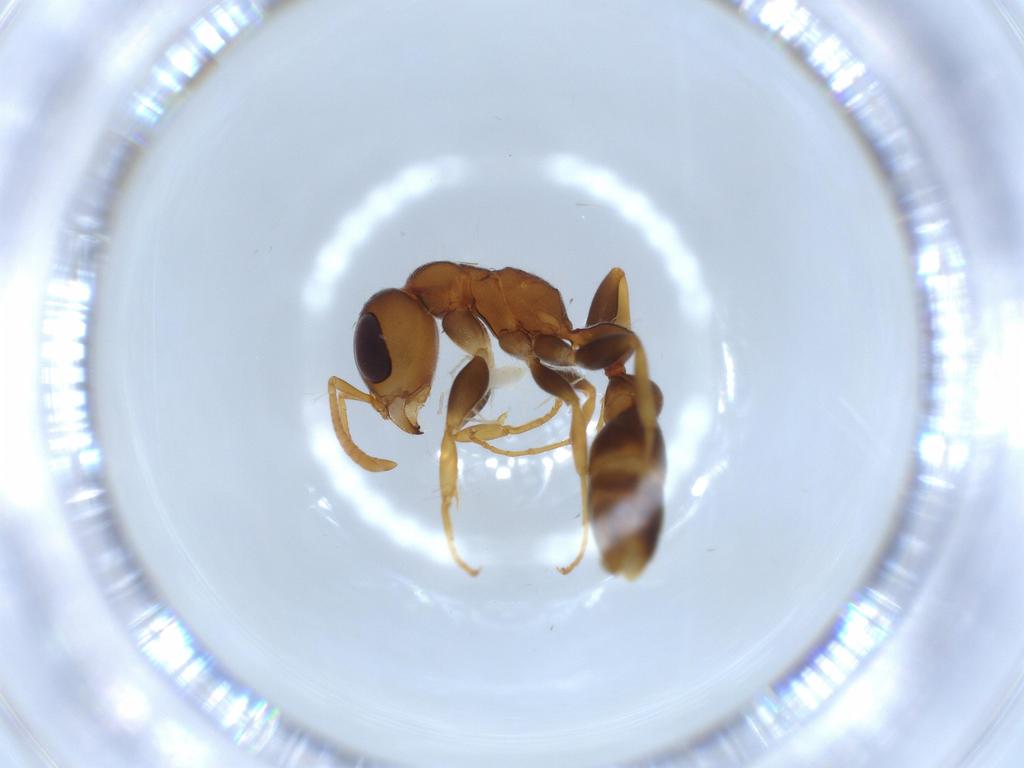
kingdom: Animalia
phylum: Arthropoda
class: Insecta
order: Hymenoptera
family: Formicidae
